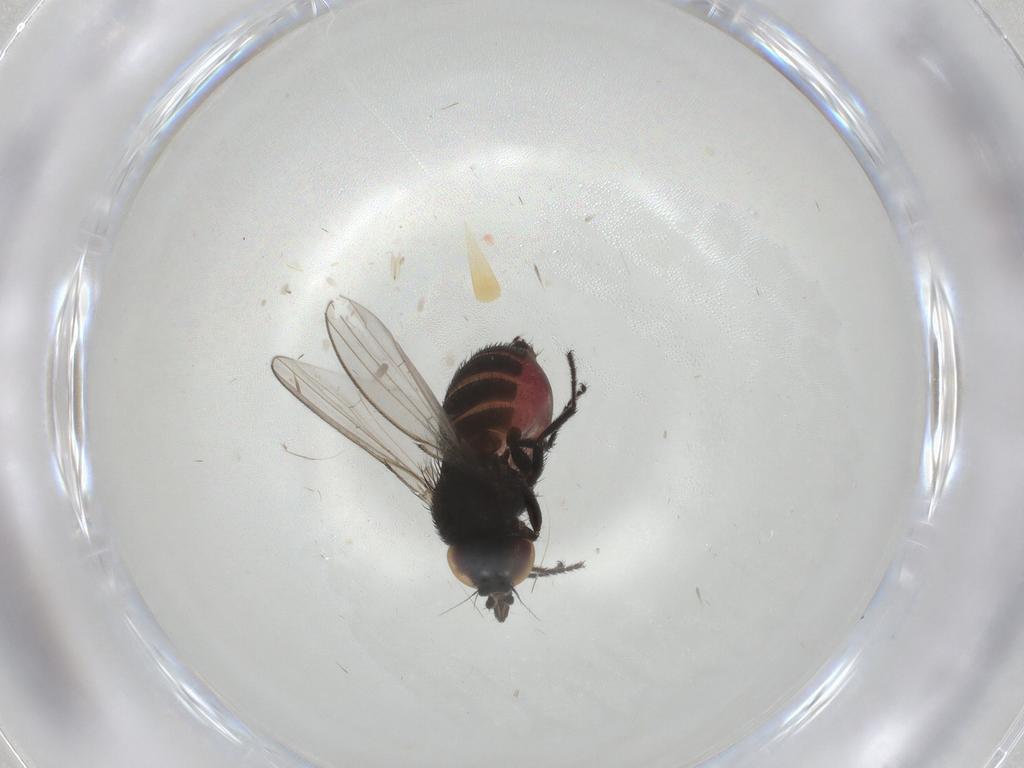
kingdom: Animalia
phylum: Arthropoda
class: Insecta
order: Diptera
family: Milichiidae
